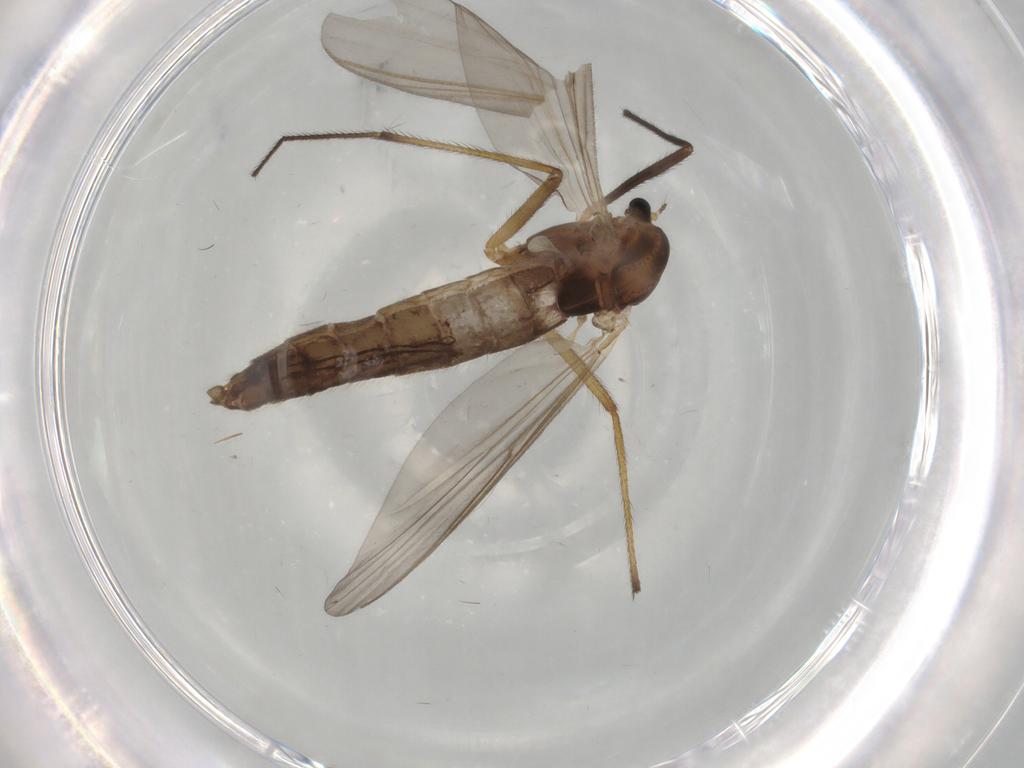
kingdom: Animalia
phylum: Arthropoda
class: Insecta
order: Diptera
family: Chironomidae
